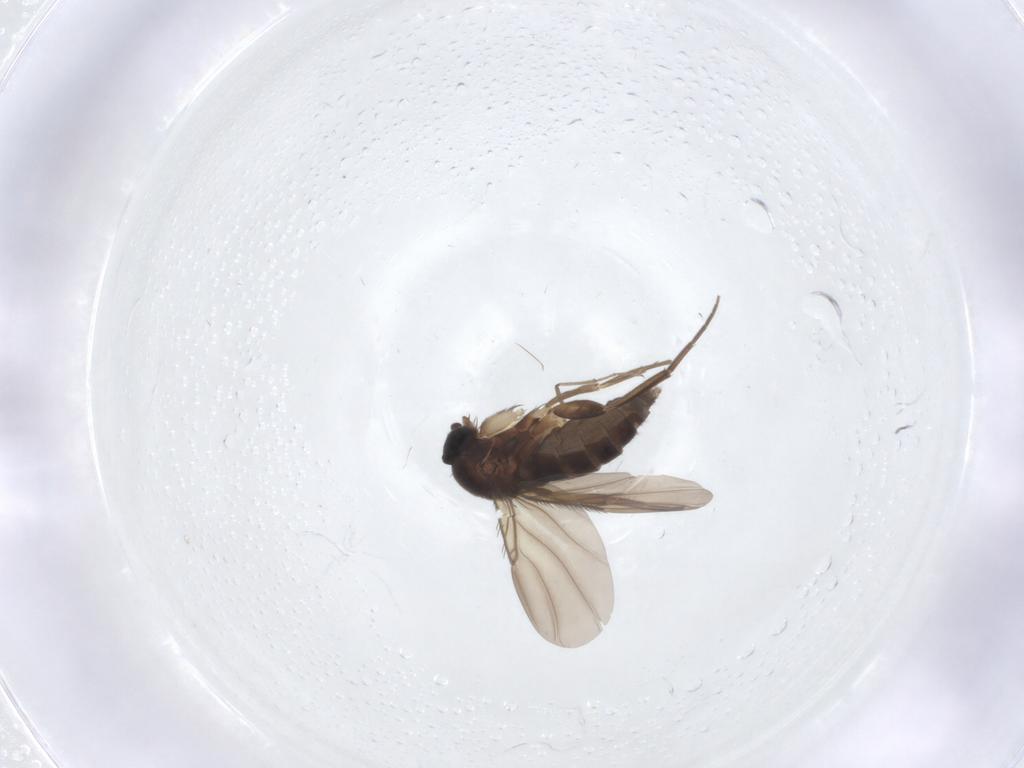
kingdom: Animalia
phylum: Arthropoda
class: Insecta
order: Diptera
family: Phoridae
